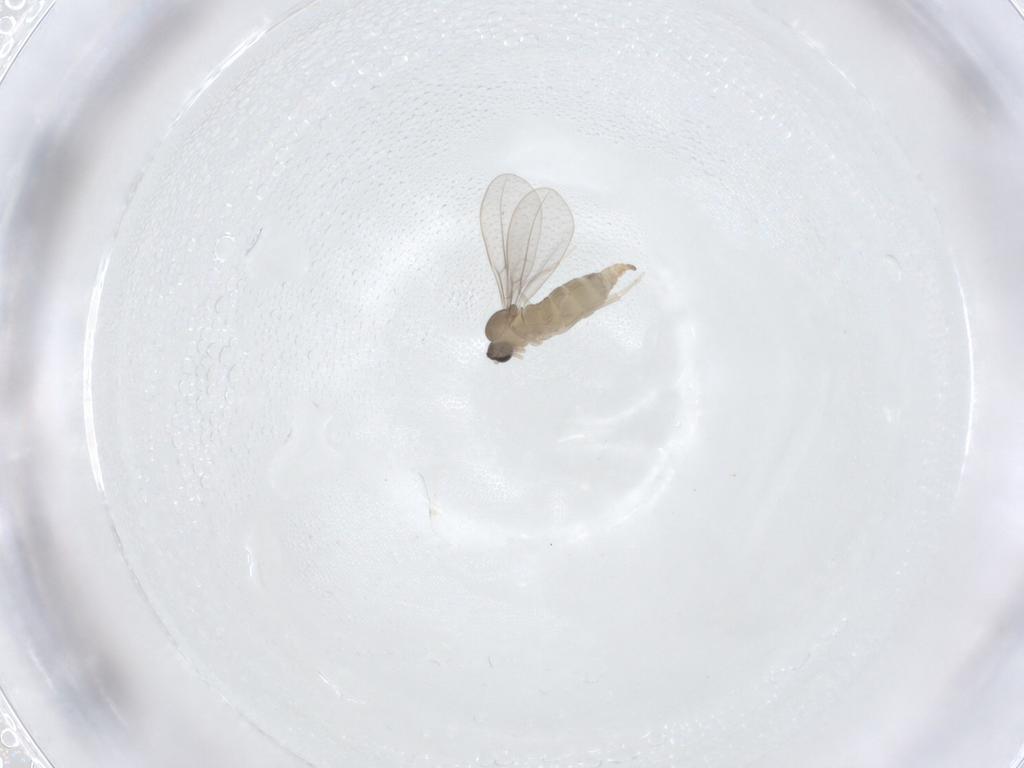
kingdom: Animalia
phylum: Arthropoda
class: Insecta
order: Diptera
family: Cecidomyiidae
